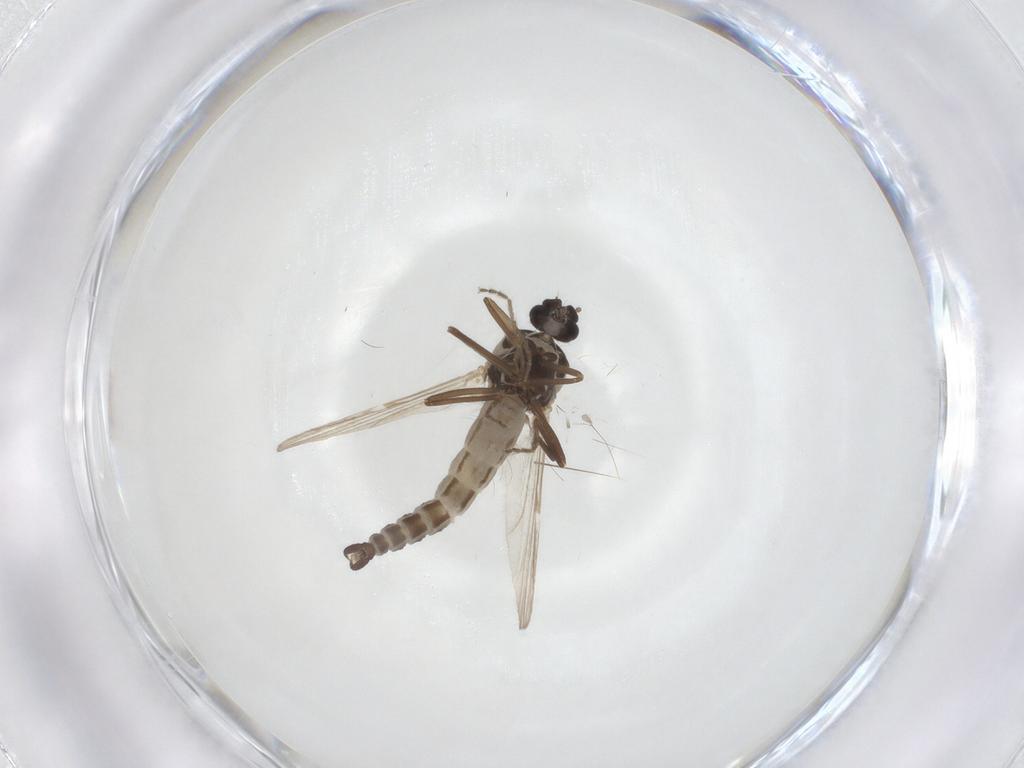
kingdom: Animalia
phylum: Arthropoda
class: Insecta
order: Diptera
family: Ceratopogonidae
